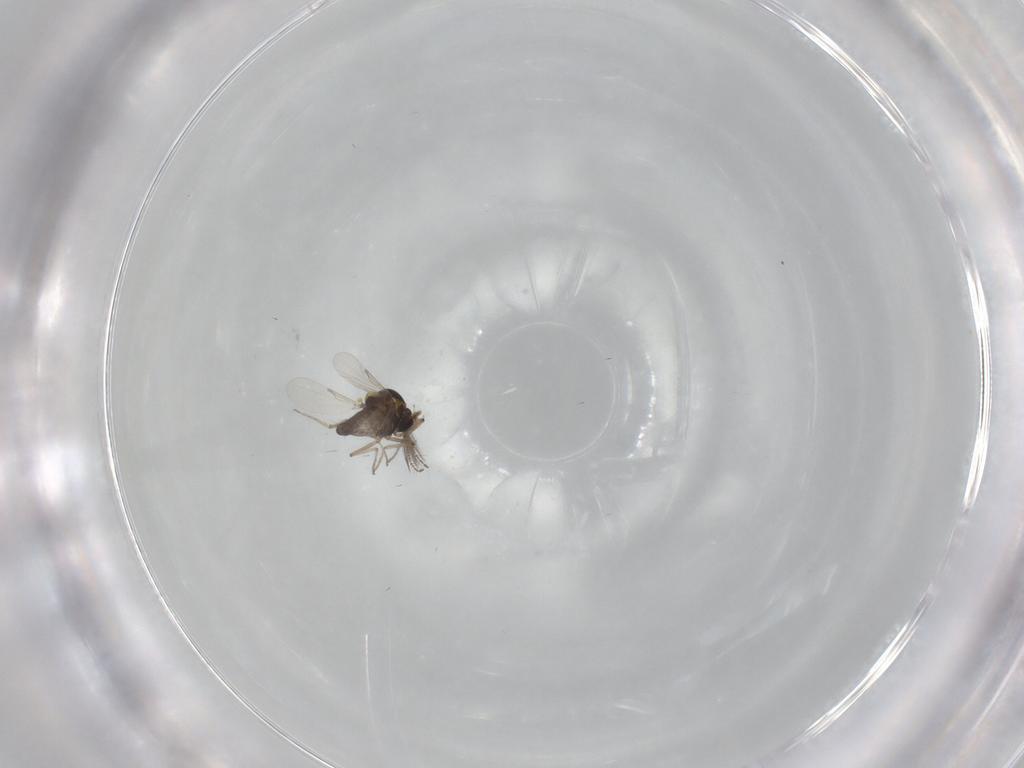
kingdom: Animalia
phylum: Arthropoda
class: Insecta
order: Diptera
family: Ceratopogonidae
